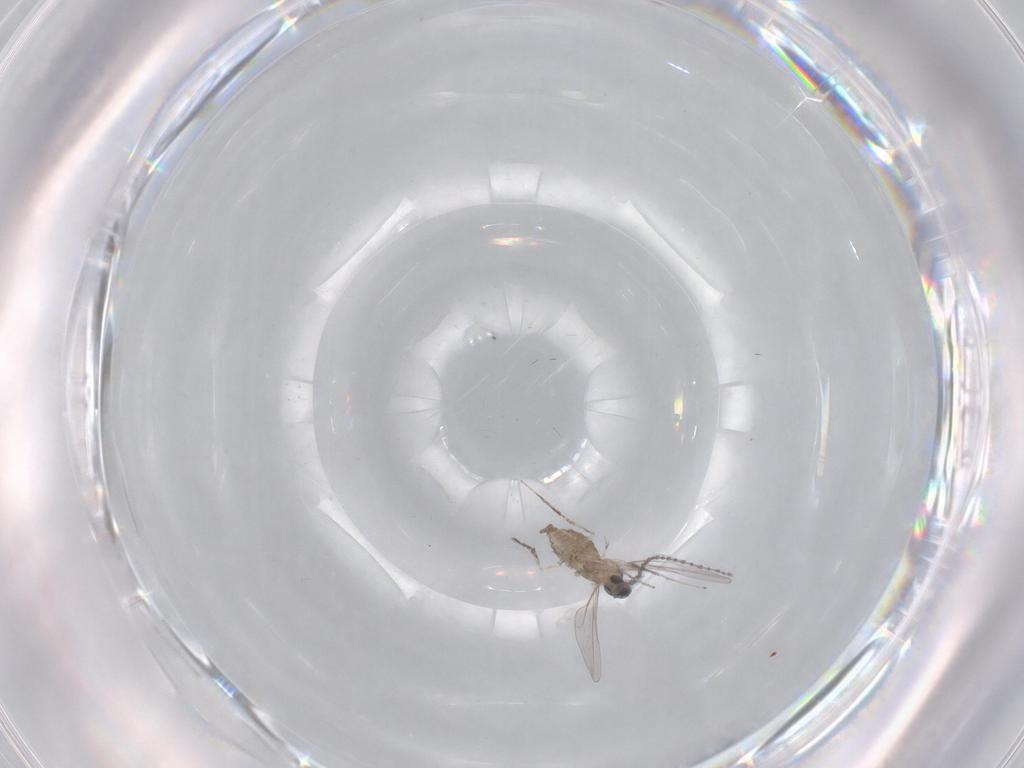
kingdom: Animalia
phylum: Arthropoda
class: Insecta
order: Diptera
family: Cecidomyiidae
